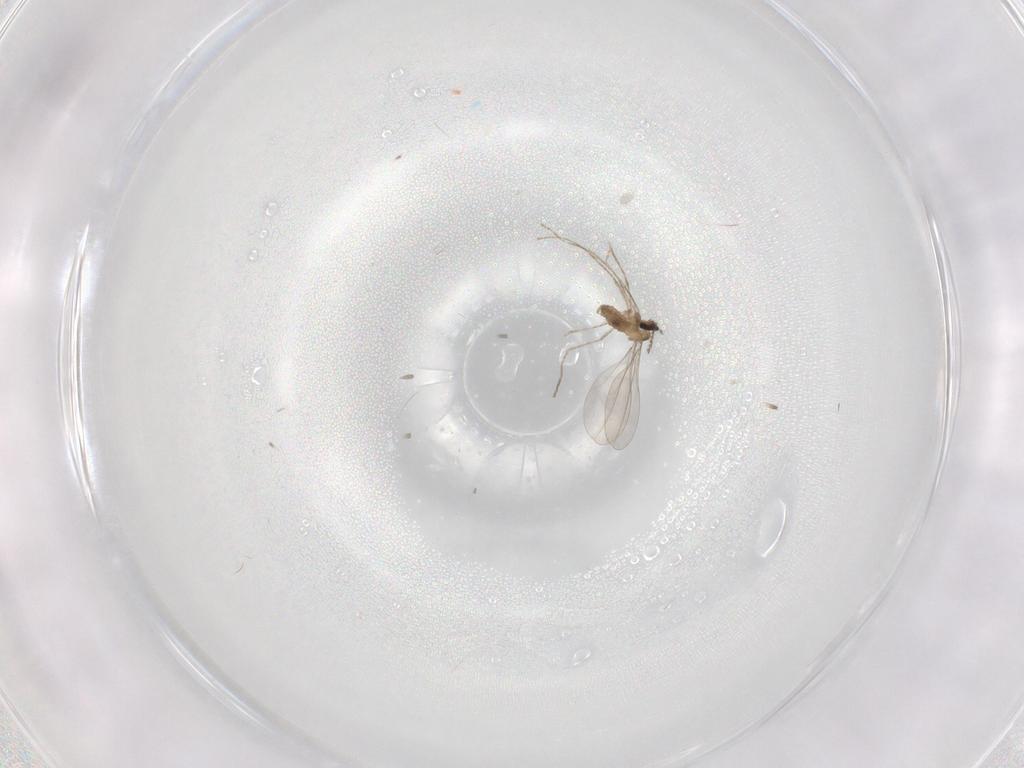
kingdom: Animalia
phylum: Arthropoda
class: Insecta
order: Diptera
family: Cecidomyiidae
